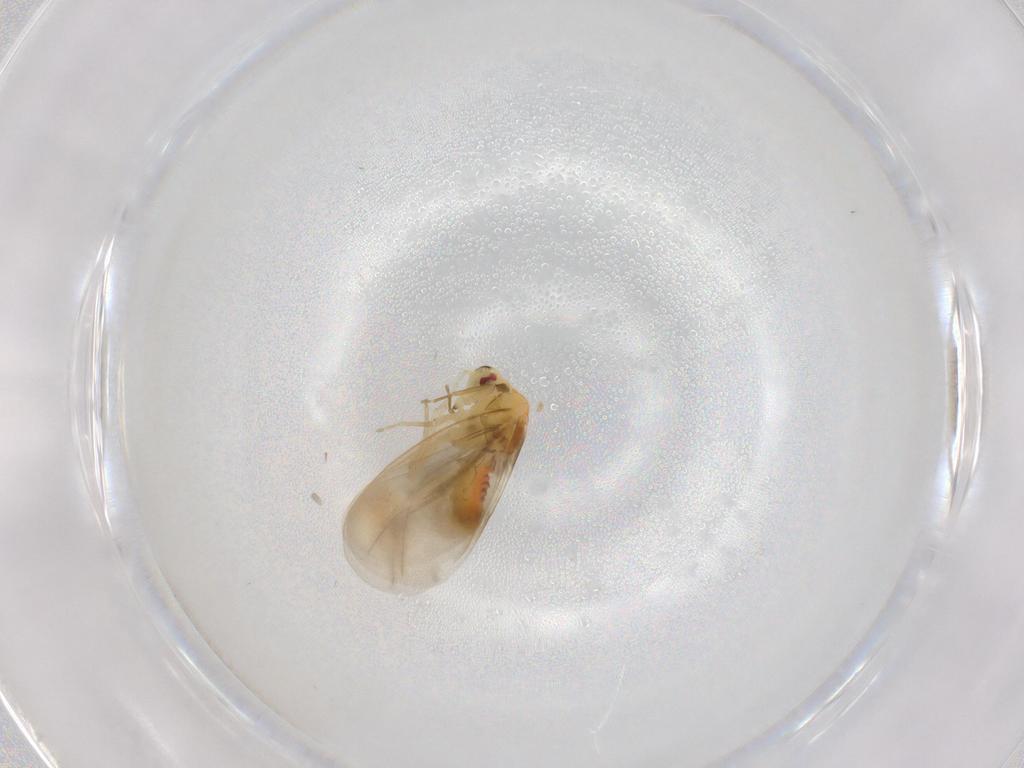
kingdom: Animalia
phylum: Arthropoda
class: Insecta
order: Hemiptera
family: Aleyrodidae
